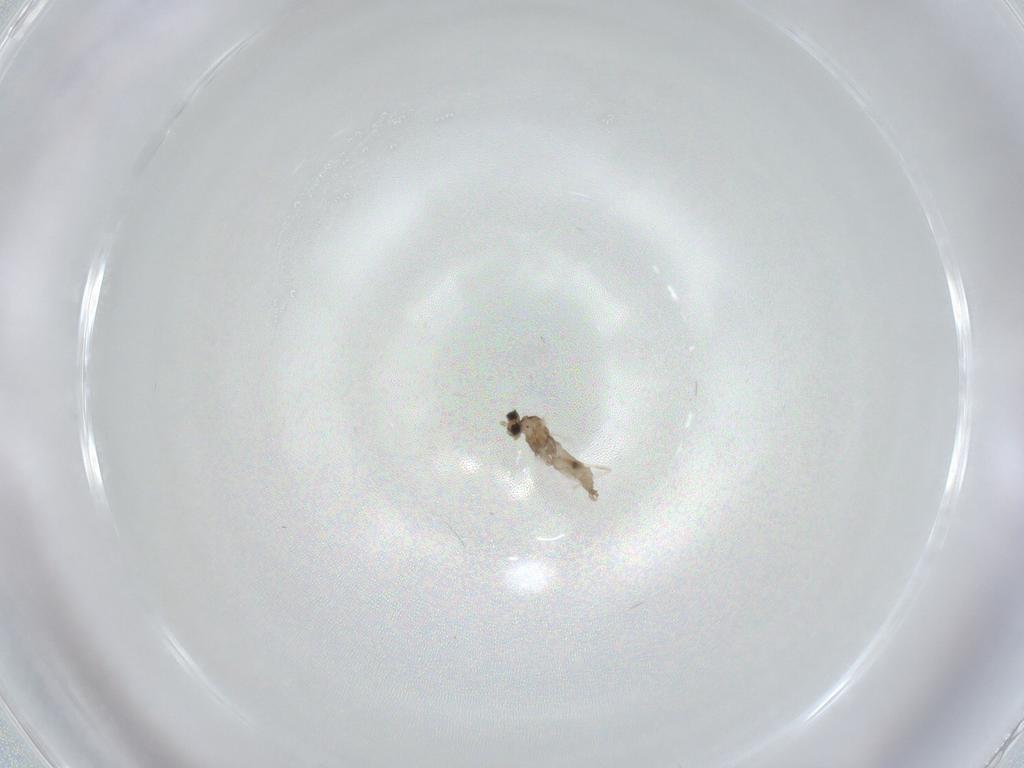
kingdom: Animalia
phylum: Arthropoda
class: Insecta
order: Diptera
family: Cecidomyiidae
